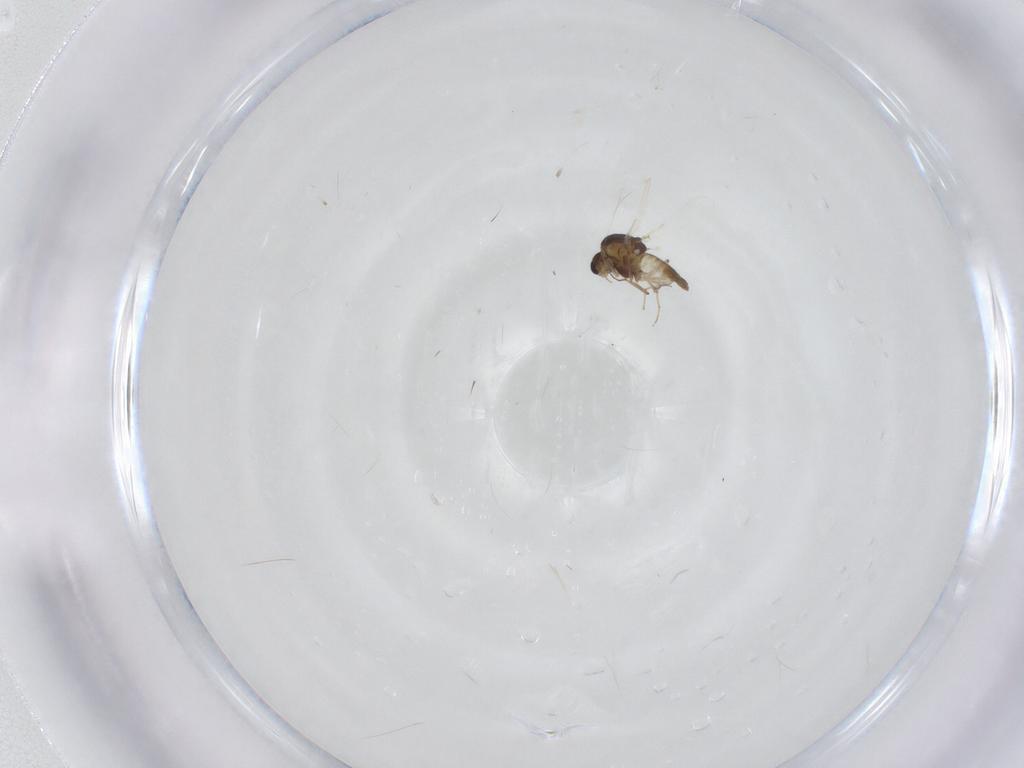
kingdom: Animalia
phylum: Arthropoda
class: Insecta
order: Diptera
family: Chironomidae
